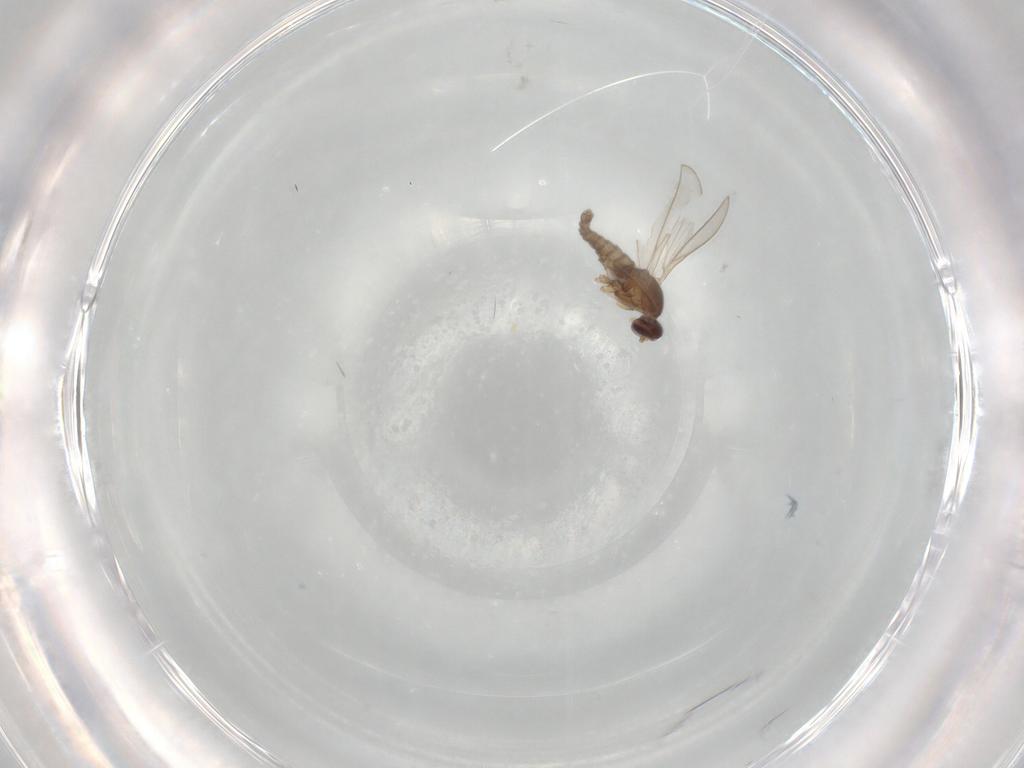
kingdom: Animalia
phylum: Arthropoda
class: Insecta
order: Diptera
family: Cecidomyiidae
